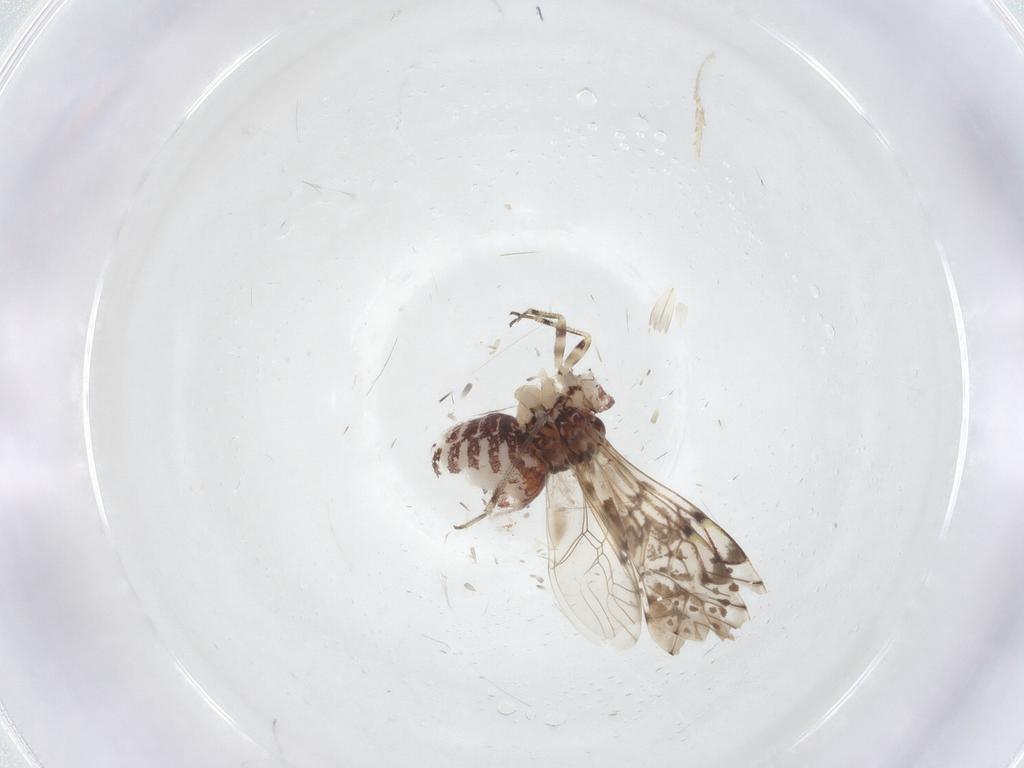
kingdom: Animalia
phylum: Arthropoda
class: Insecta
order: Psocodea
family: Psocidae
